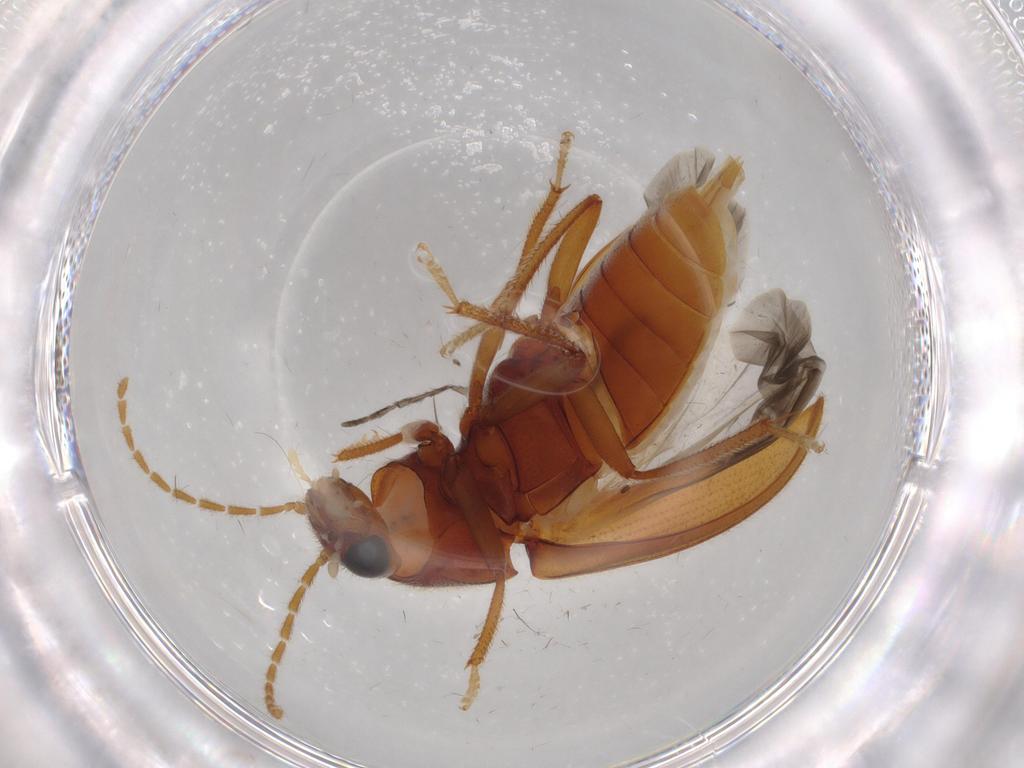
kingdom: Animalia
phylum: Arthropoda
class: Insecta
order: Coleoptera
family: Ptilodactylidae
